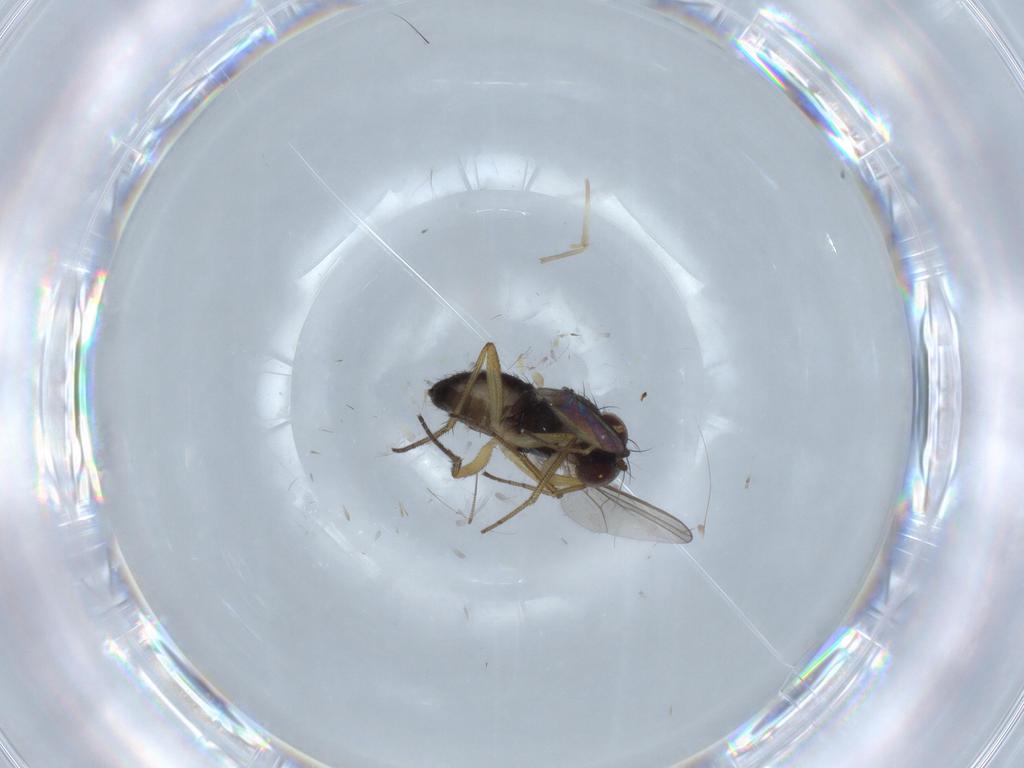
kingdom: Animalia
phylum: Arthropoda
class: Insecta
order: Diptera
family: Dolichopodidae
